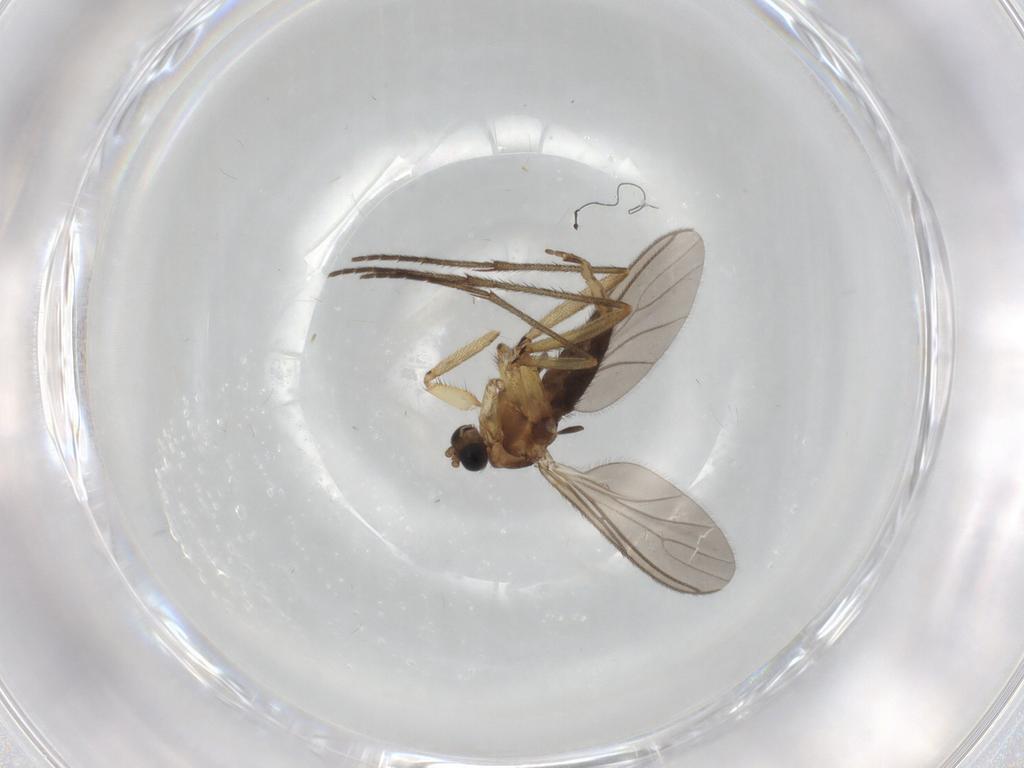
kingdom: Animalia
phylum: Arthropoda
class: Insecta
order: Diptera
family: Sciaridae
